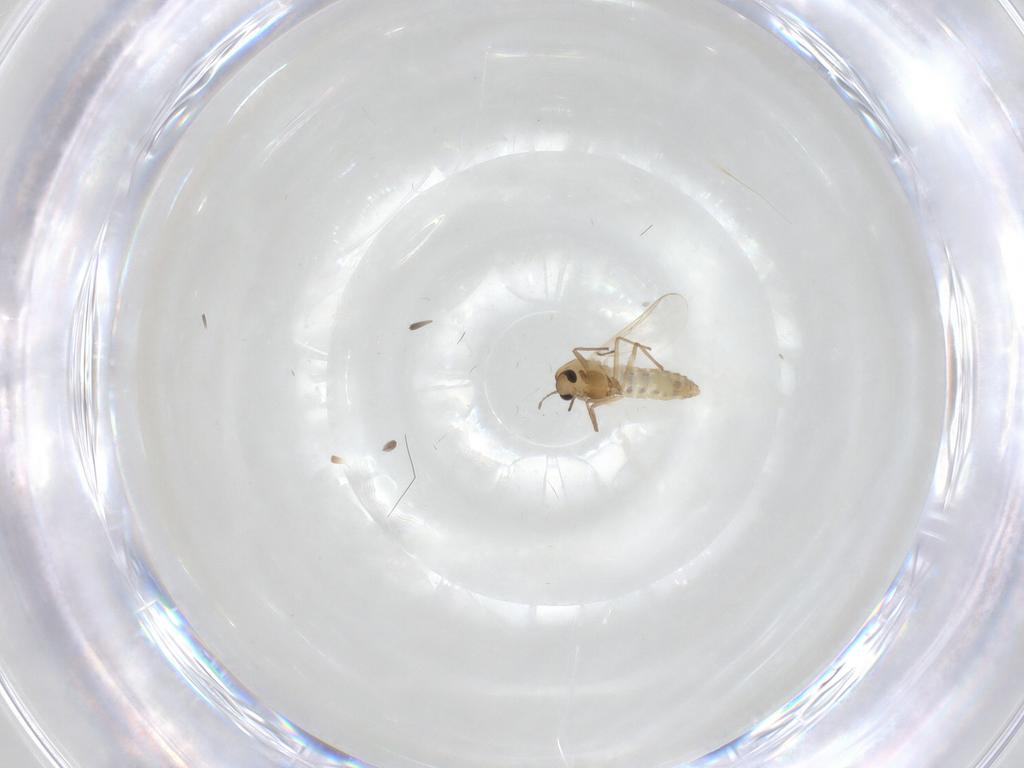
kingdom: Animalia
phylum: Arthropoda
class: Insecta
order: Diptera
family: Chironomidae
